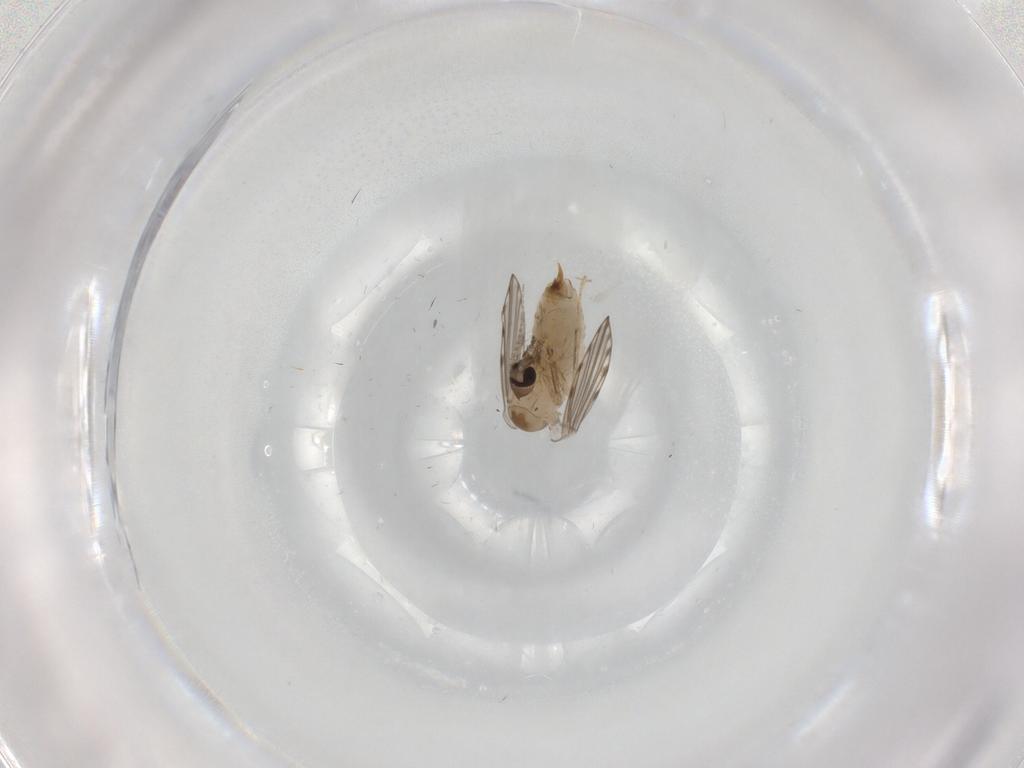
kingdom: Animalia
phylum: Arthropoda
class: Insecta
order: Diptera
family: Psychodidae
